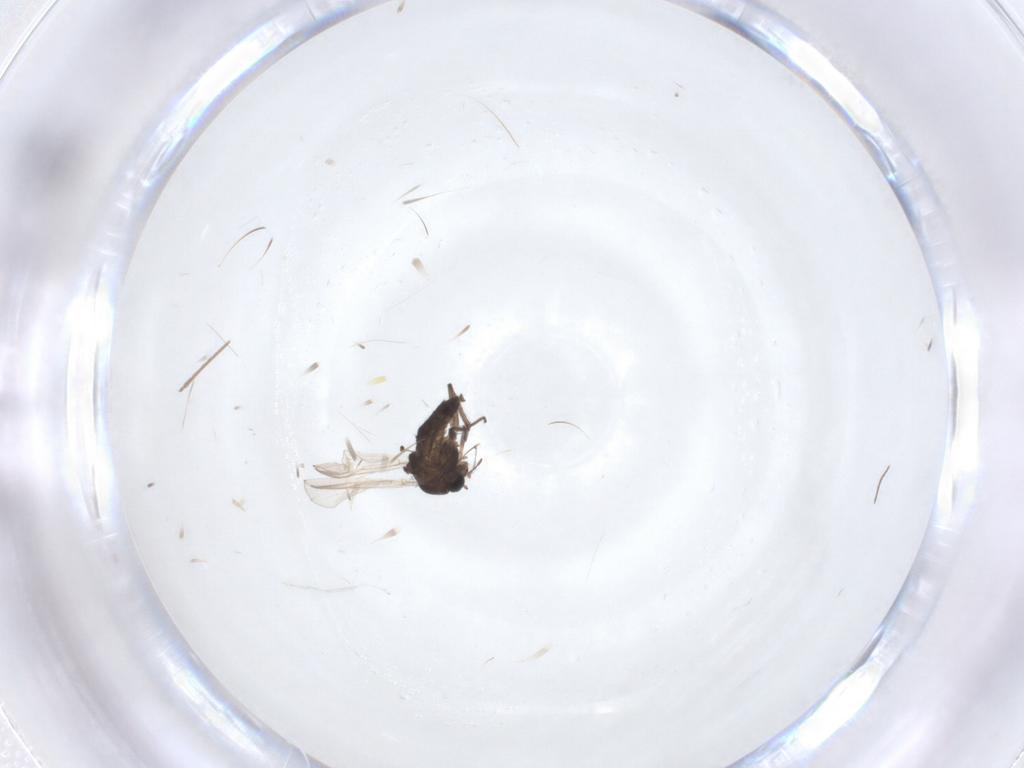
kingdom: Animalia
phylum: Arthropoda
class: Insecta
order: Diptera
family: Chironomidae
